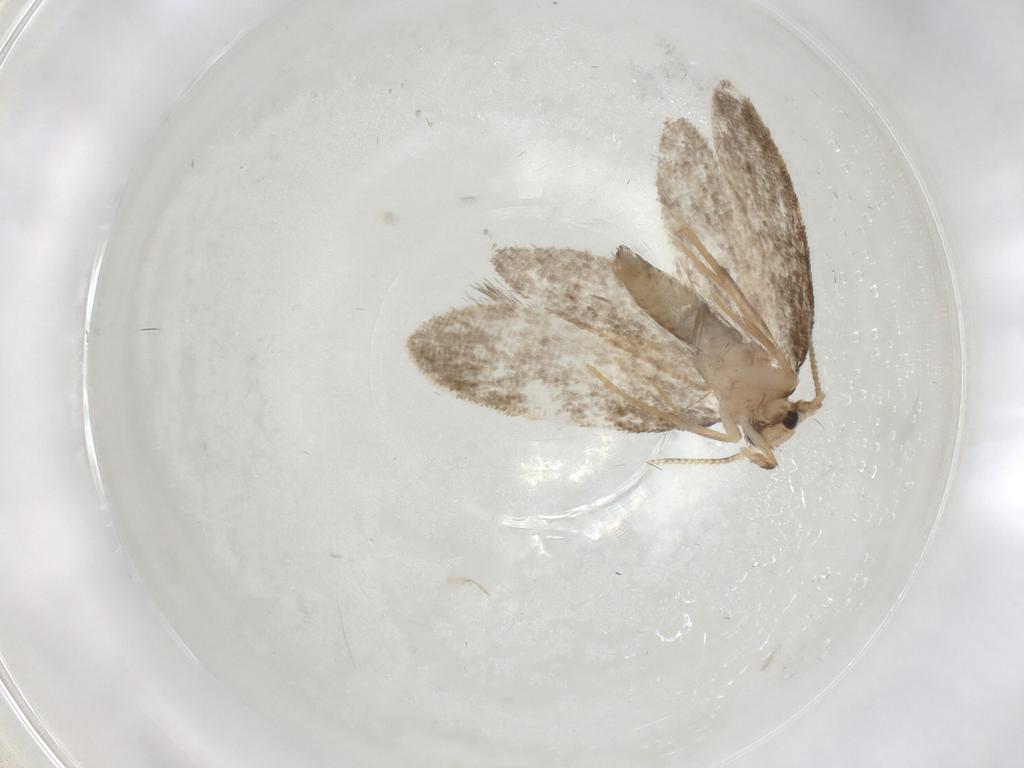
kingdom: Animalia
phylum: Arthropoda
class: Insecta
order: Lepidoptera
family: Psychidae
